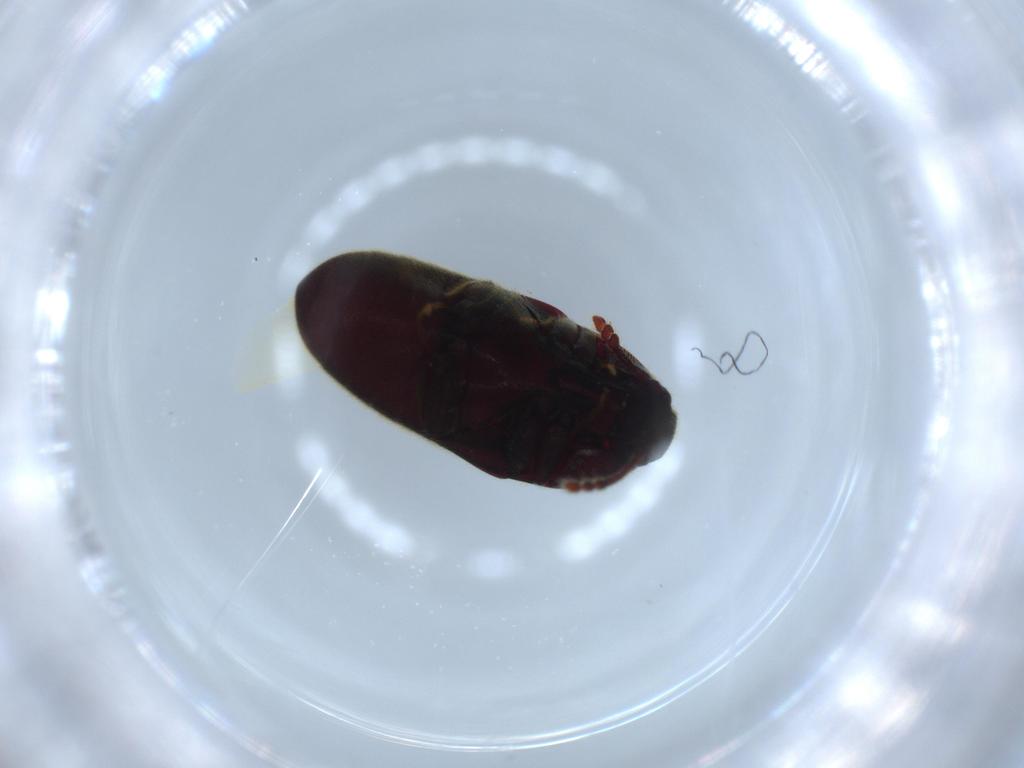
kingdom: Animalia
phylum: Arthropoda
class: Insecta
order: Coleoptera
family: Throscidae
